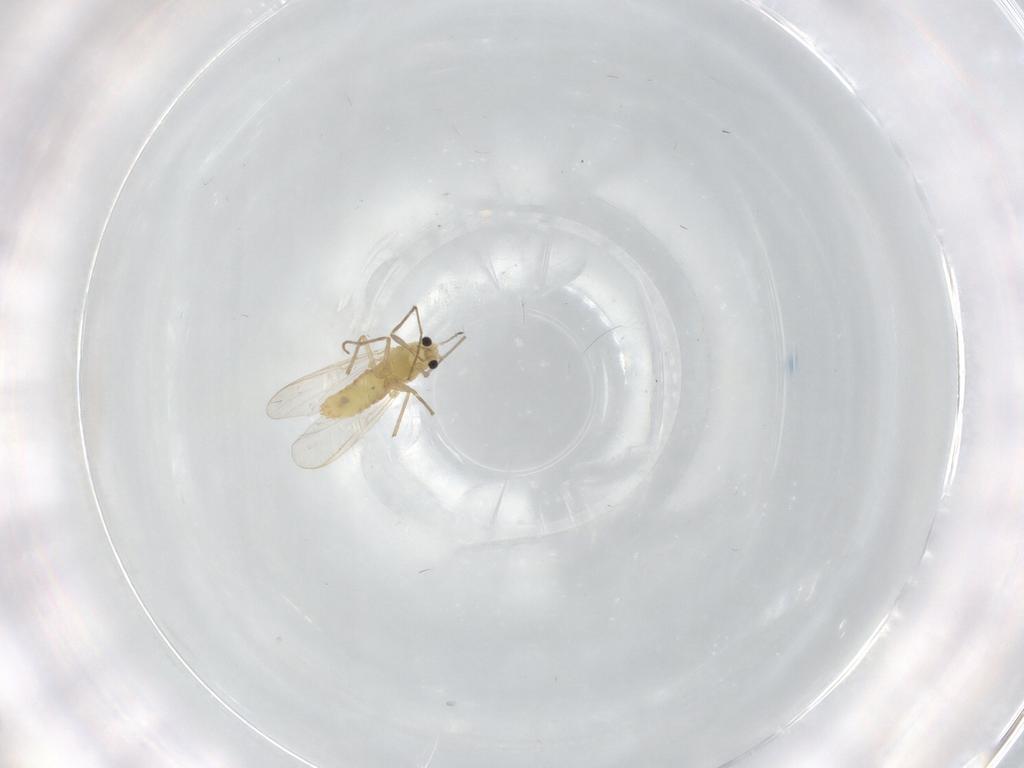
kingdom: Animalia
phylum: Arthropoda
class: Insecta
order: Diptera
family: Chironomidae
